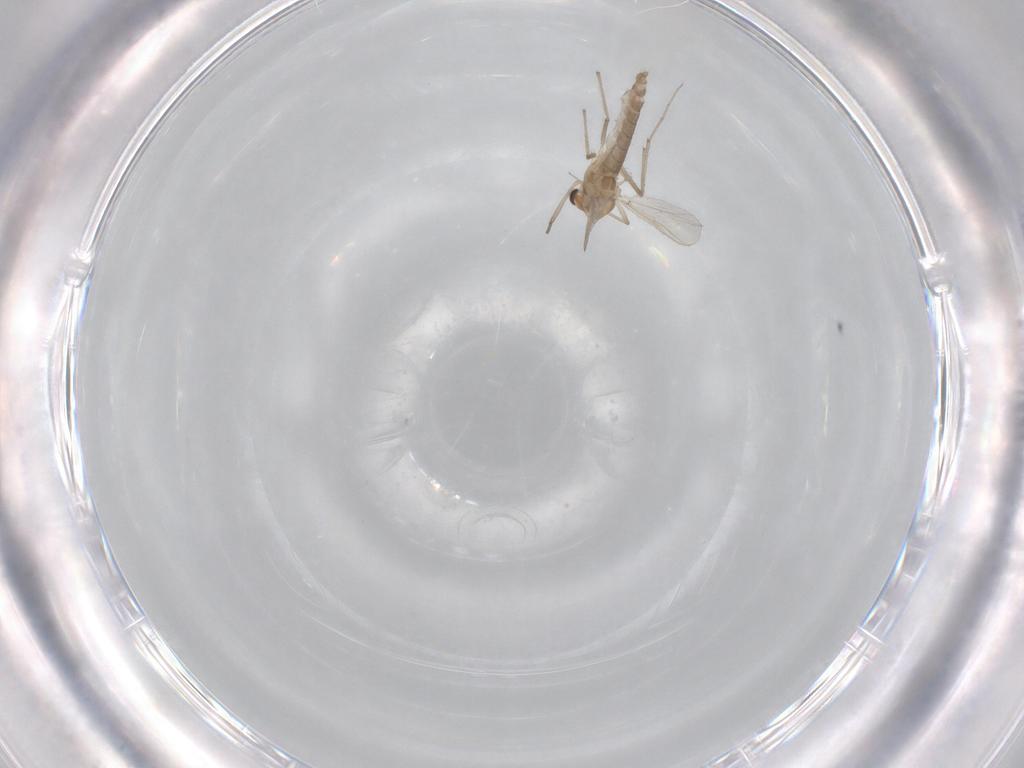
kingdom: Animalia
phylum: Arthropoda
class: Insecta
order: Diptera
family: Chironomidae
